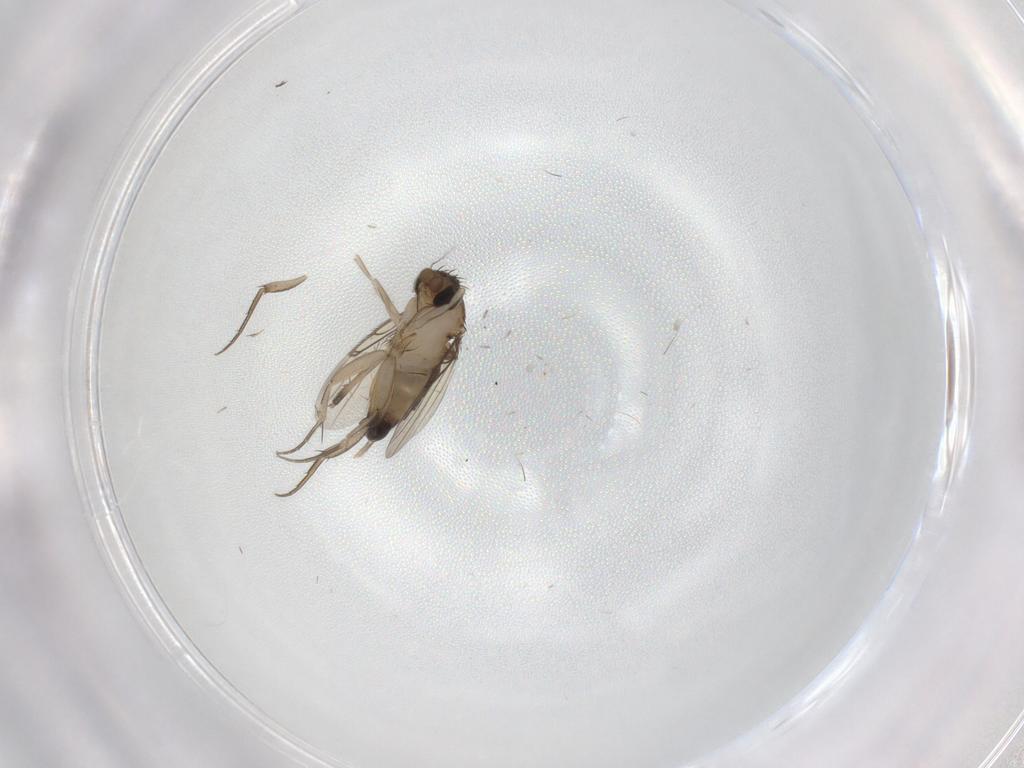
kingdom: Animalia
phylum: Arthropoda
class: Insecta
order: Diptera
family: Phoridae
